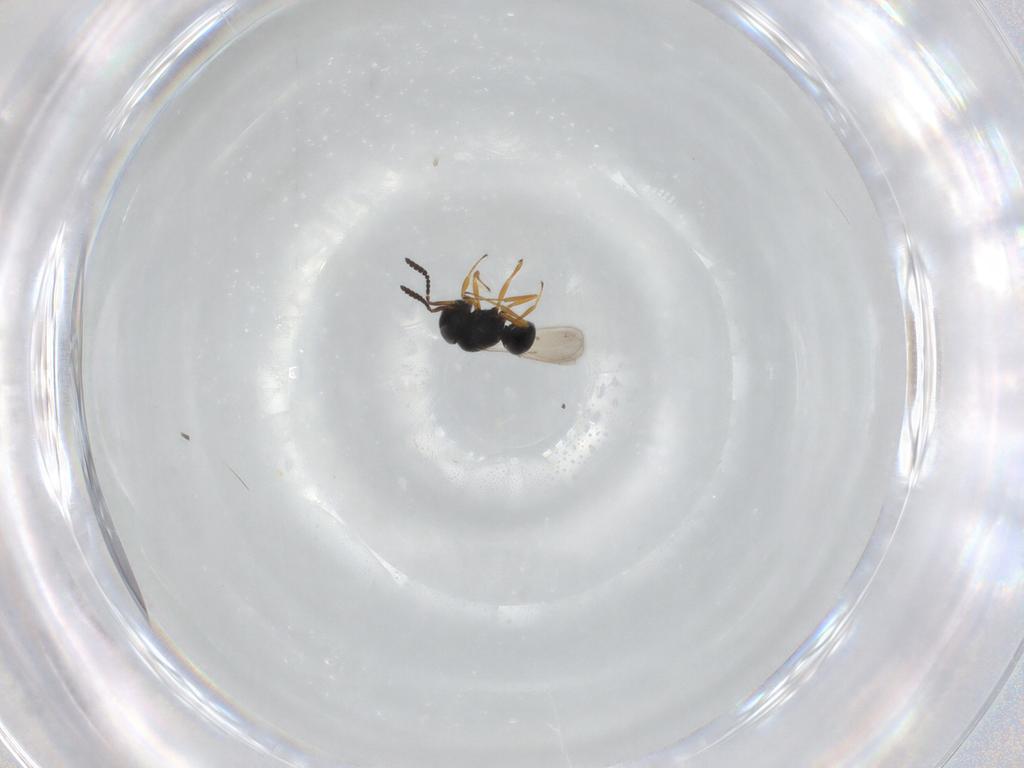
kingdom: Animalia
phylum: Arthropoda
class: Insecta
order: Hymenoptera
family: Scelionidae
